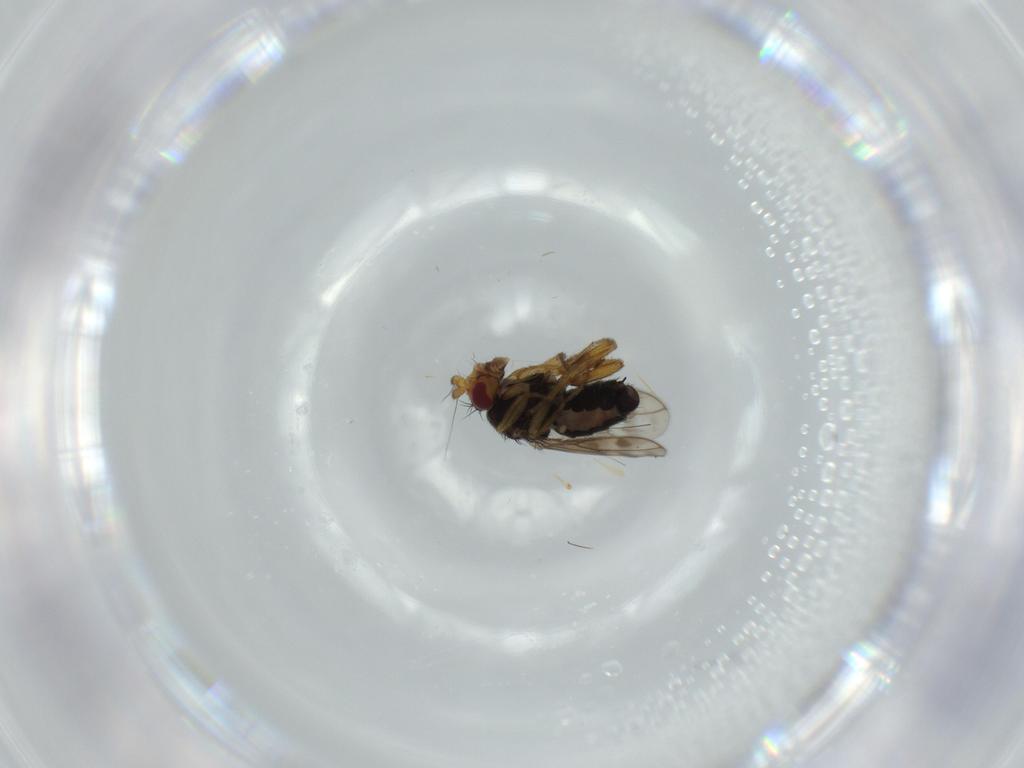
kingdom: Animalia
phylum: Arthropoda
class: Insecta
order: Diptera
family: Sphaeroceridae
